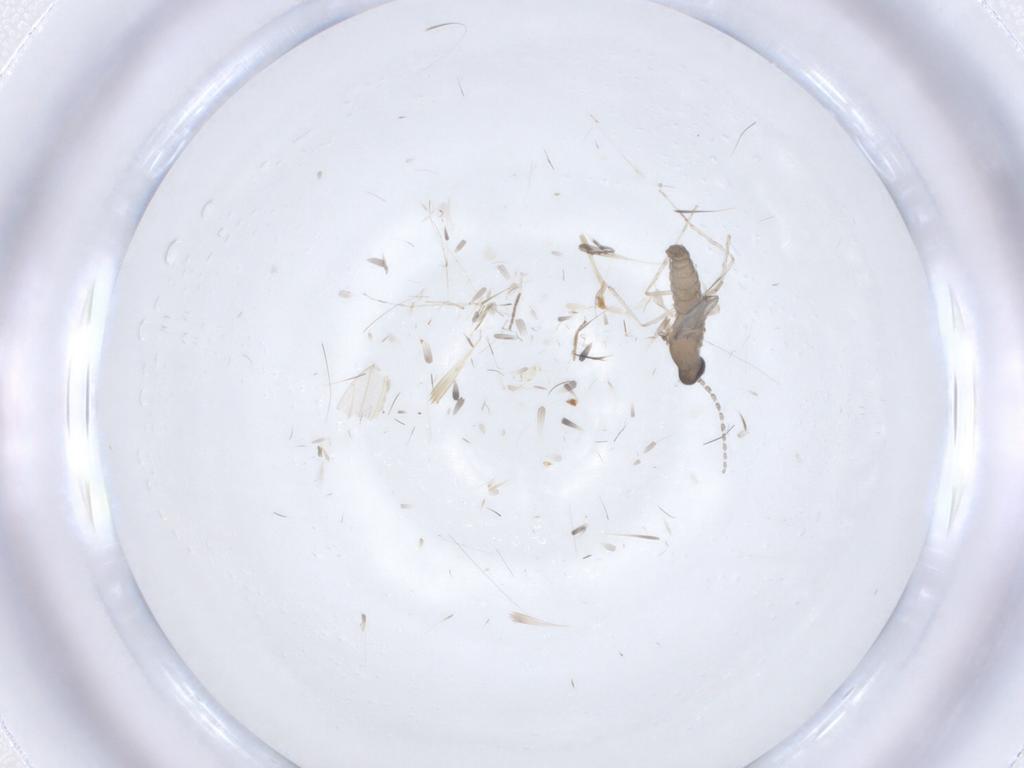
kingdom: Animalia
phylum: Arthropoda
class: Insecta
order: Diptera
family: Cecidomyiidae
